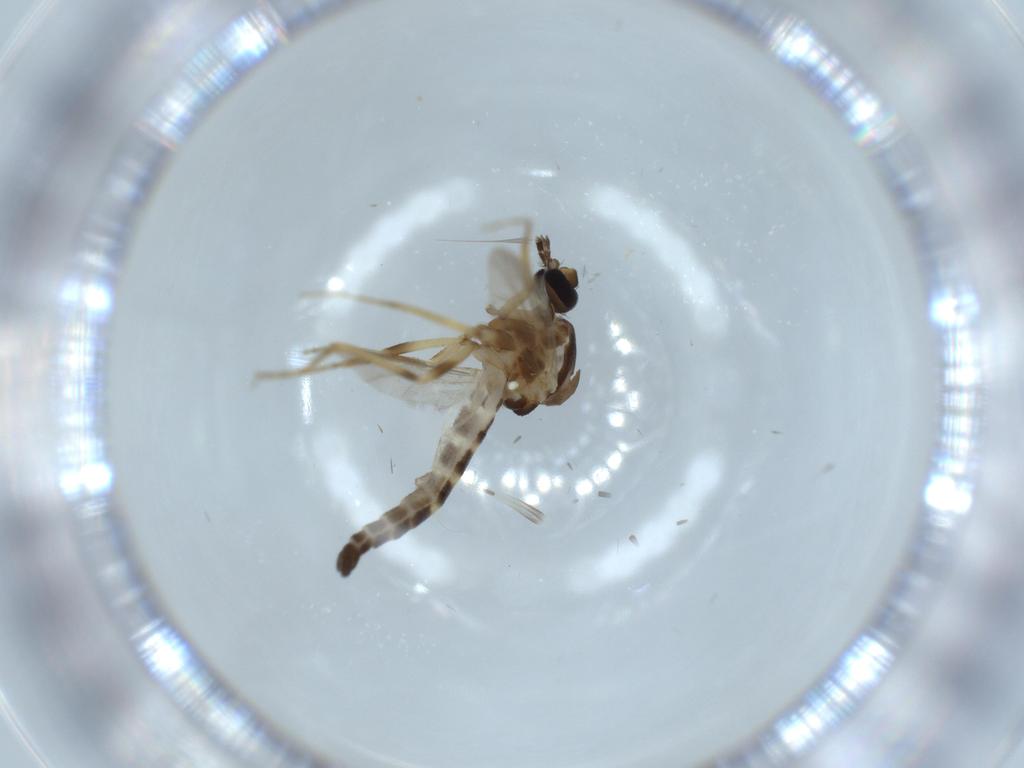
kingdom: Animalia
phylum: Arthropoda
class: Insecta
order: Diptera
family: Ceratopogonidae
